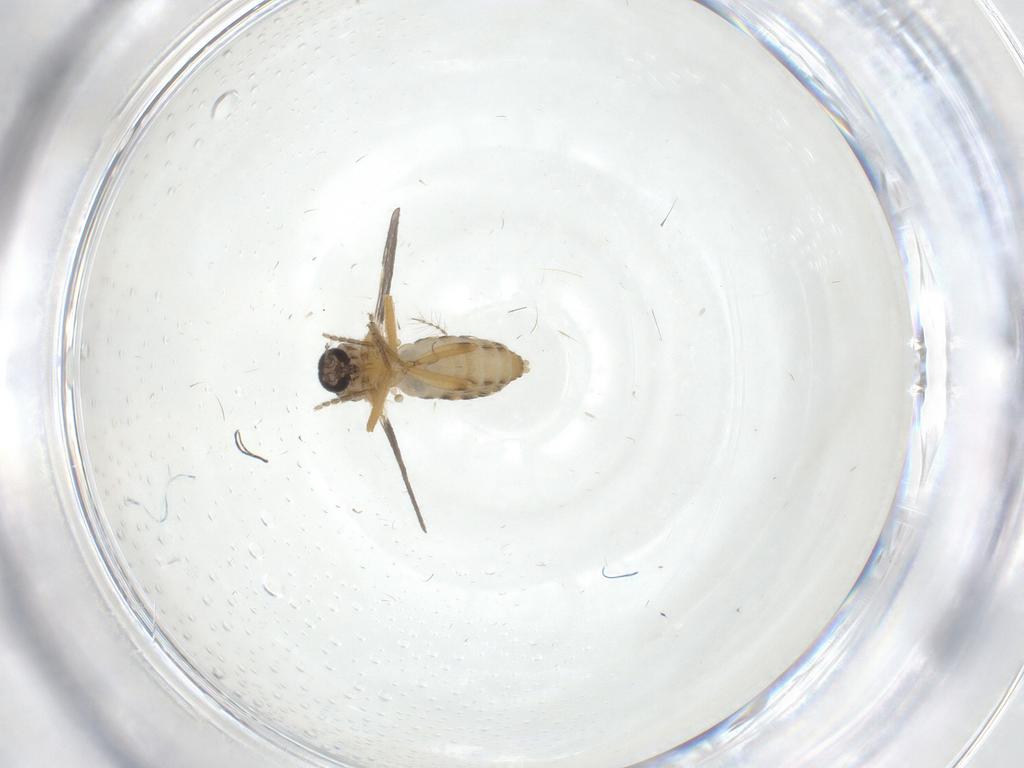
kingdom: Animalia
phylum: Arthropoda
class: Insecta
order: Diptera
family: Ceratopogonidae
